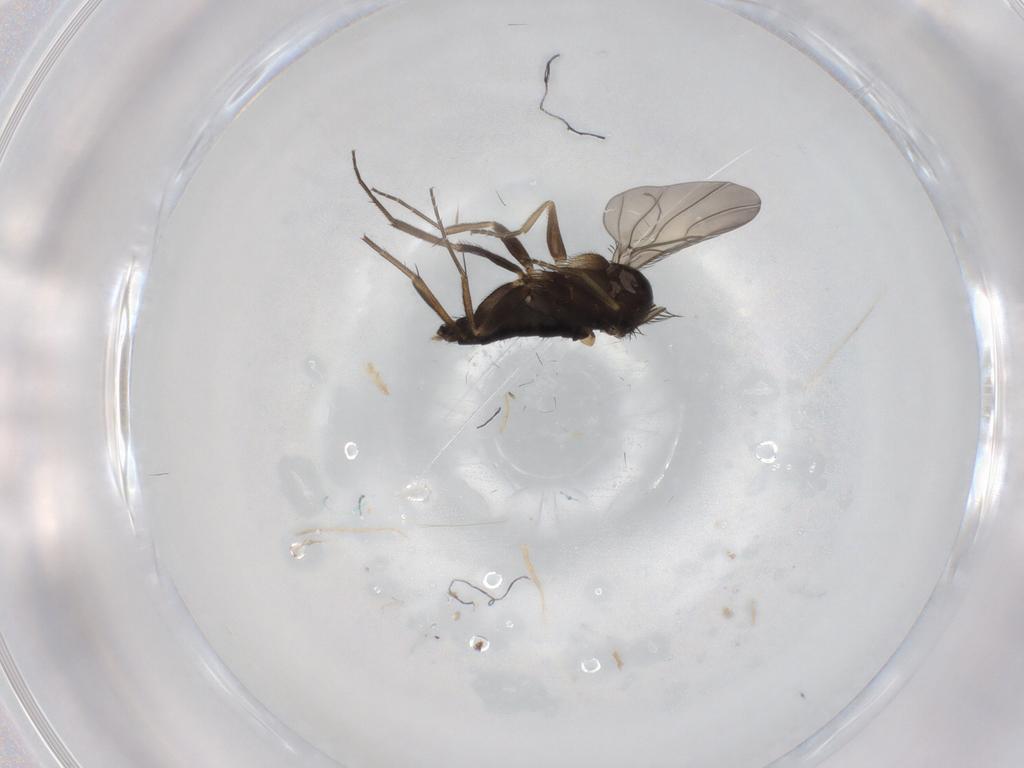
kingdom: Animalia
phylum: Arthropoda
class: Insecta
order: Diptera
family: Phoridae
